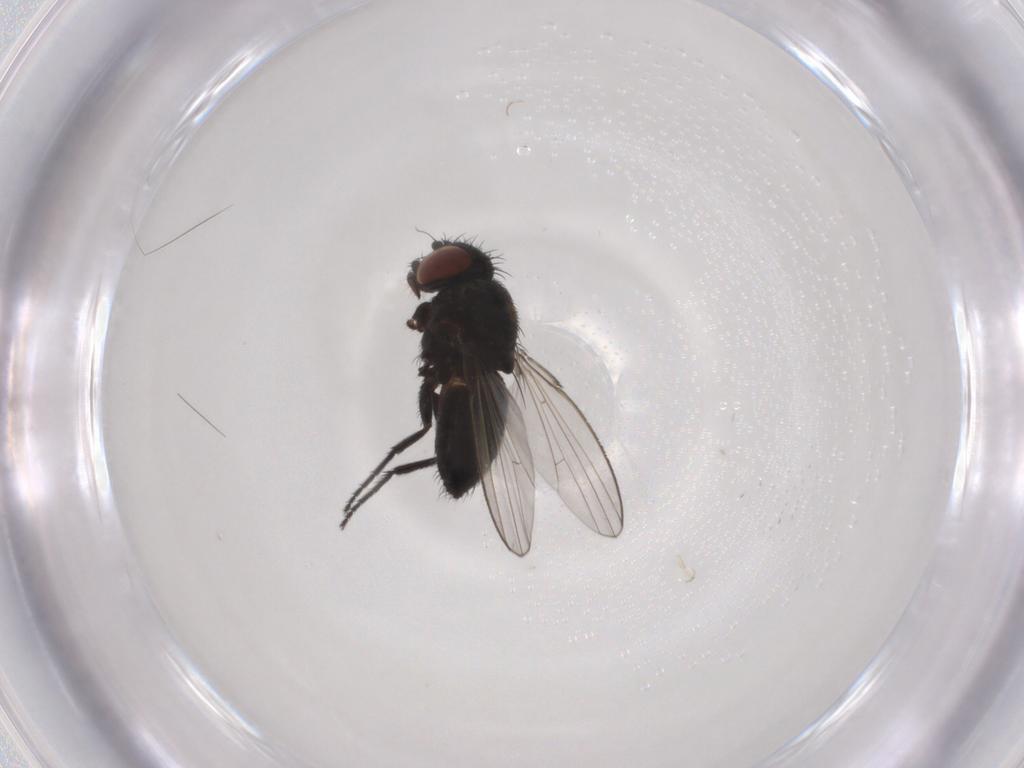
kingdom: Animalia
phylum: Arthropoda
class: Insecta
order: Diptera
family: Milichiidae
